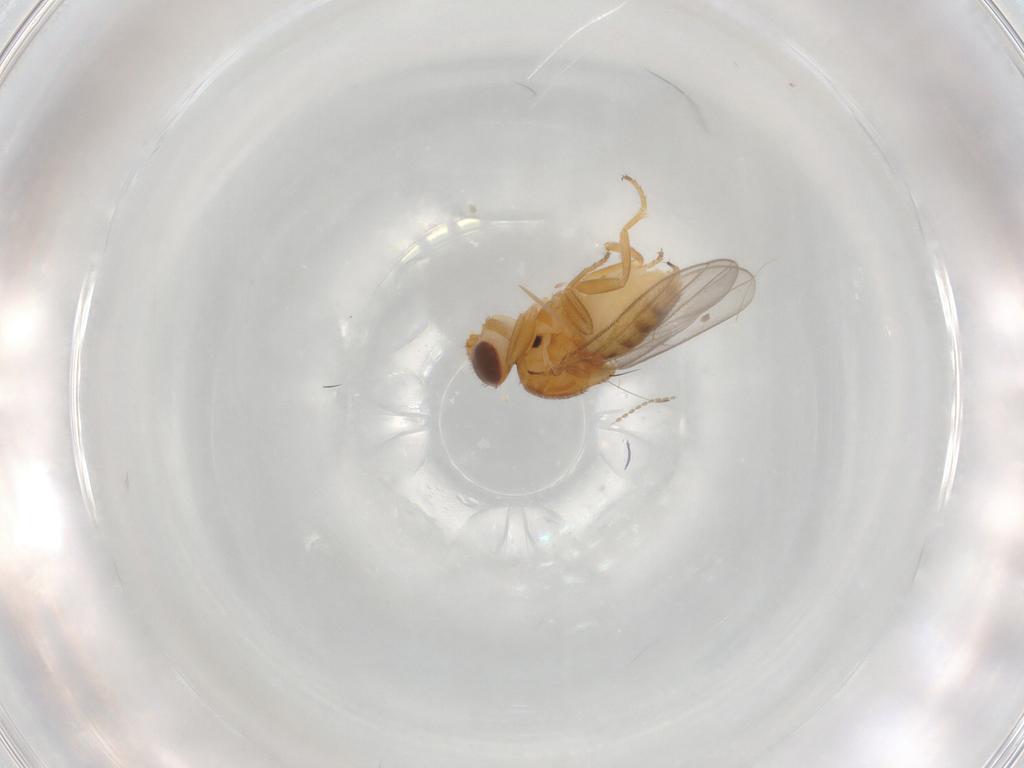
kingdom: Animalia
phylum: Arthropoda
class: Insecta
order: Diptera
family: Chloropidae
